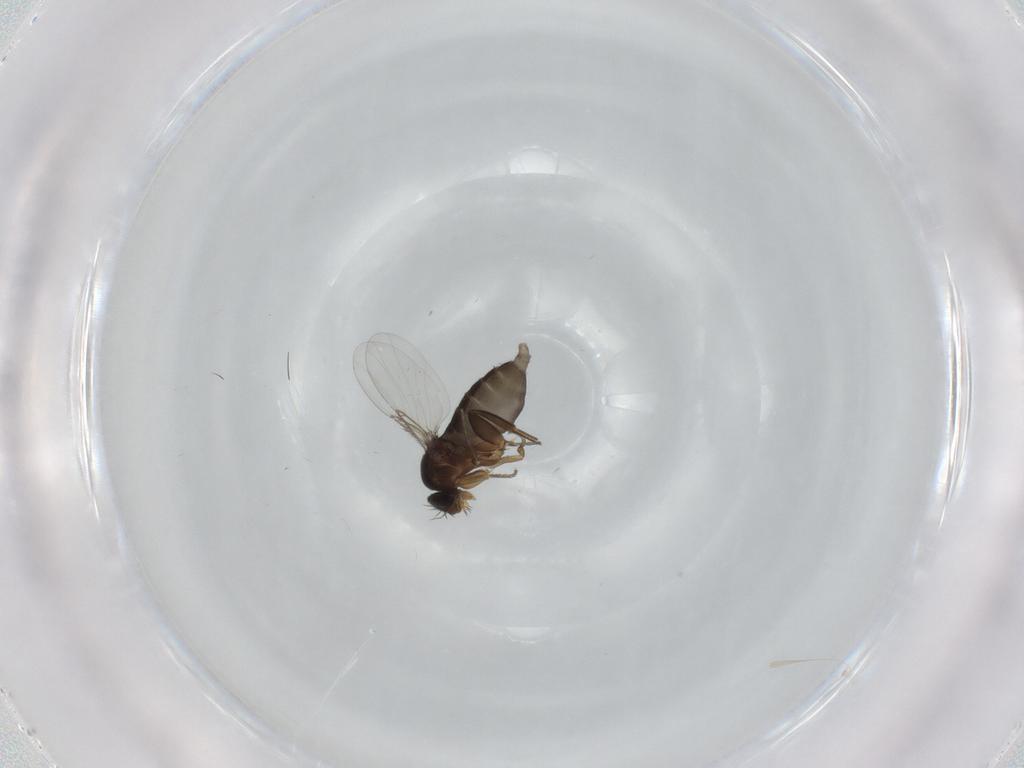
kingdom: Animalia
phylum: Arthropoda
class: Insecta
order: Diptera
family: Phoridae
